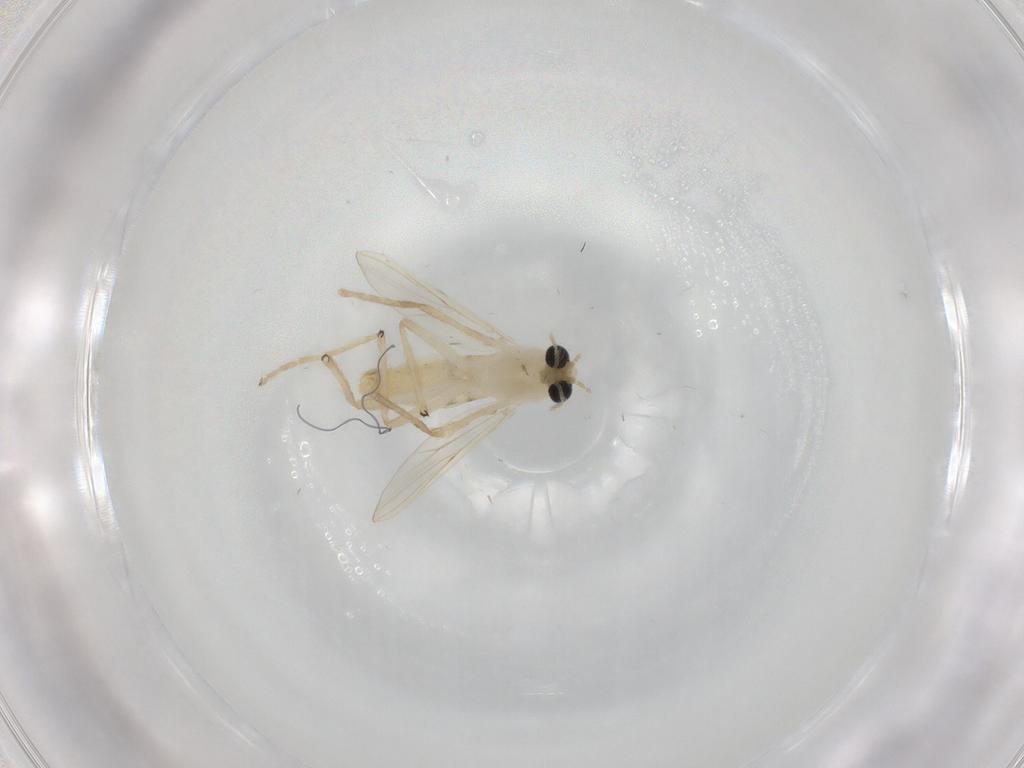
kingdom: Animalia
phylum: Arthropoda
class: Insecta
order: Diptera
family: Chironomidae
